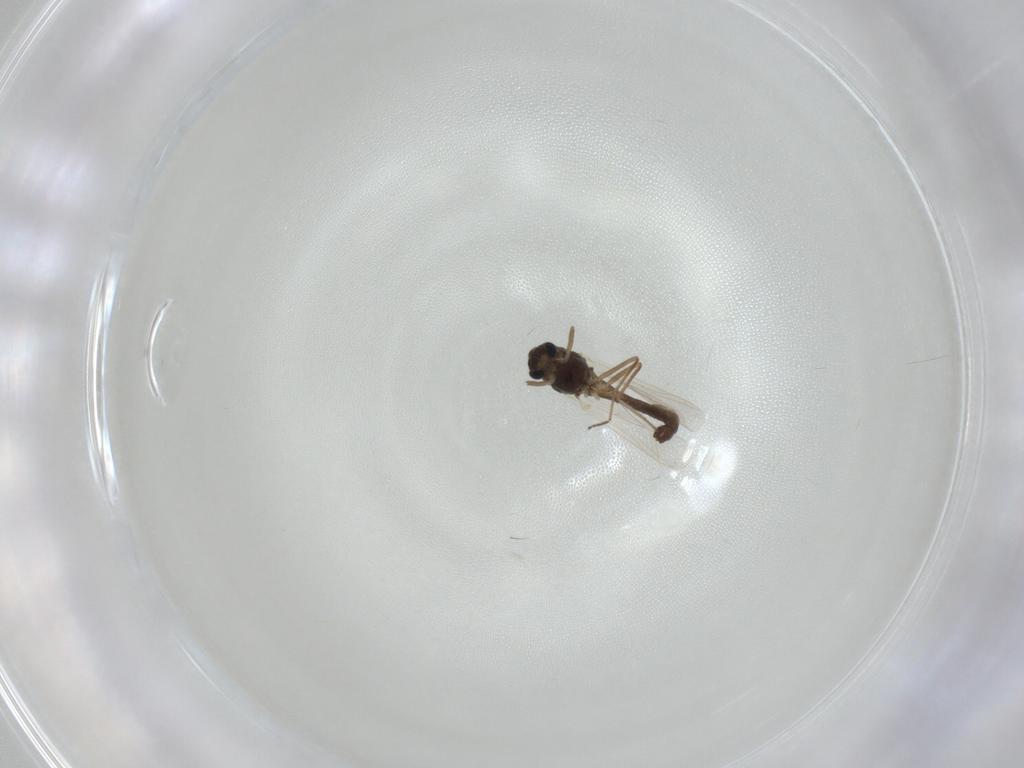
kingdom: Animalia
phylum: Arthropoda
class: Insecta
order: Diptera
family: Chironomidae
